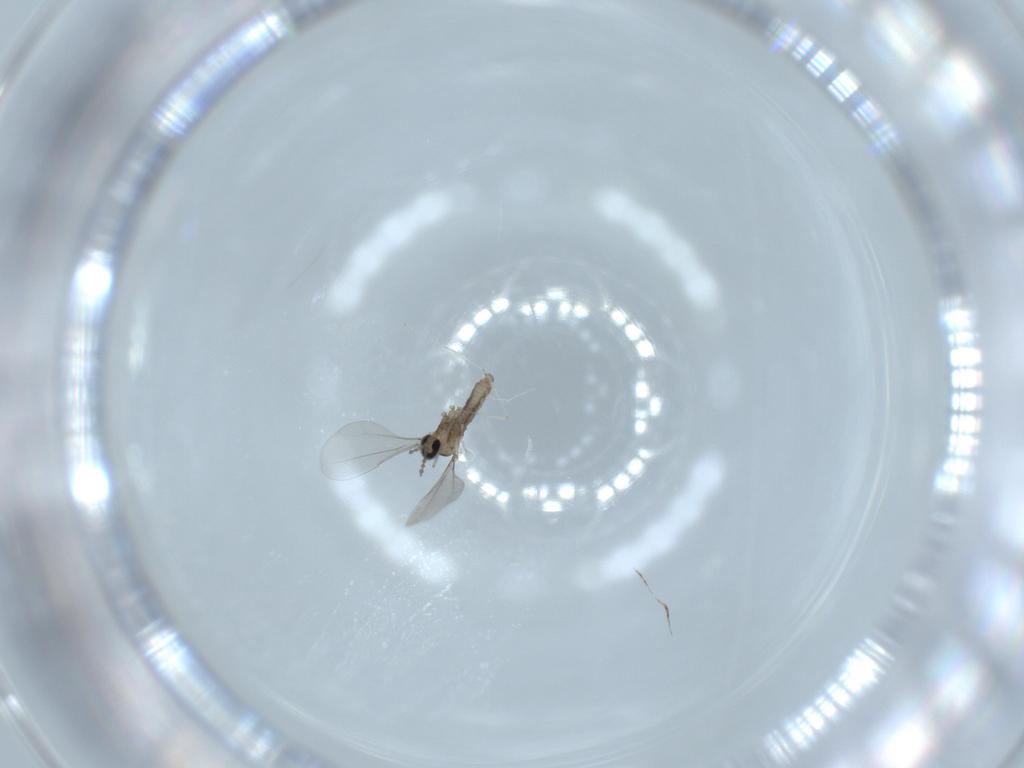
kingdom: Animalia
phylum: Arthropoda
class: Insecta
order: Diptera
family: Cecidomyiidae
